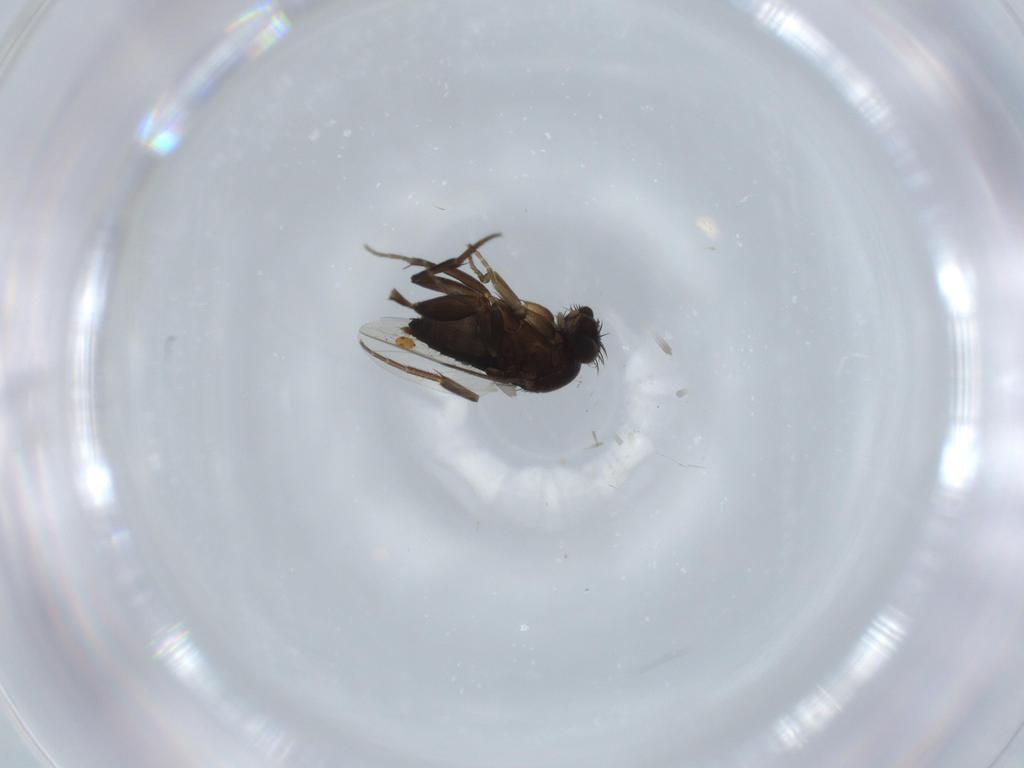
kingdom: Animalia
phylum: Arthropoda
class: Insecta
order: Diptera
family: Phoridae
